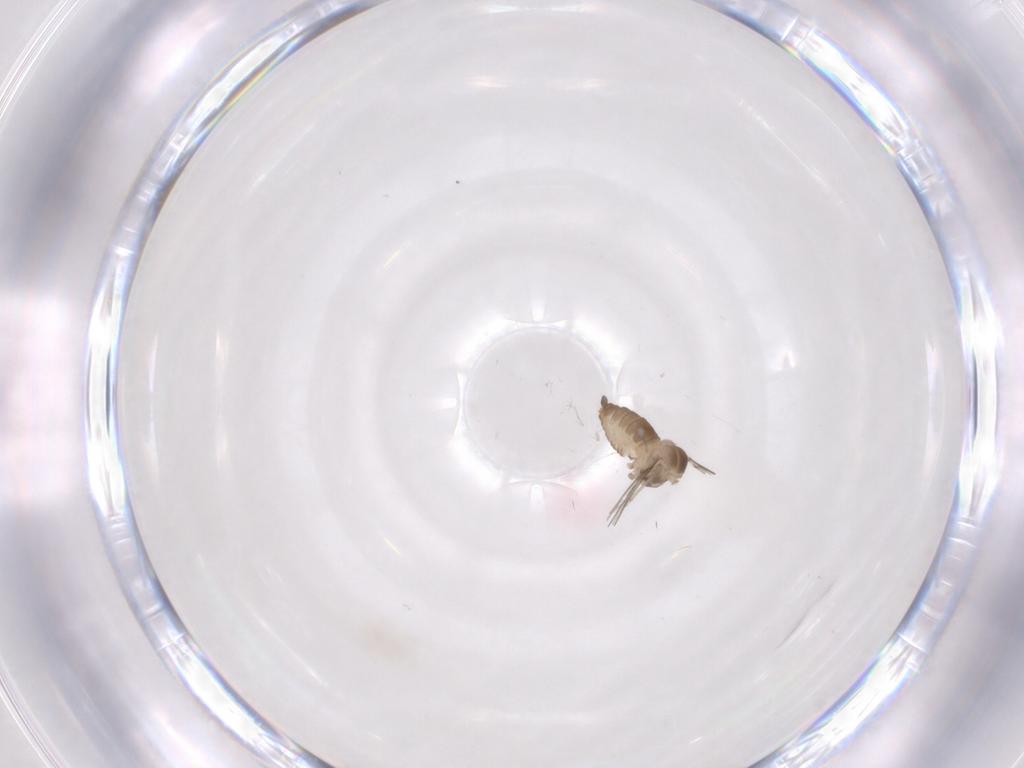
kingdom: Animalia
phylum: Arthropoda
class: Insecta
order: Diptera
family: Cecidomyiidae
